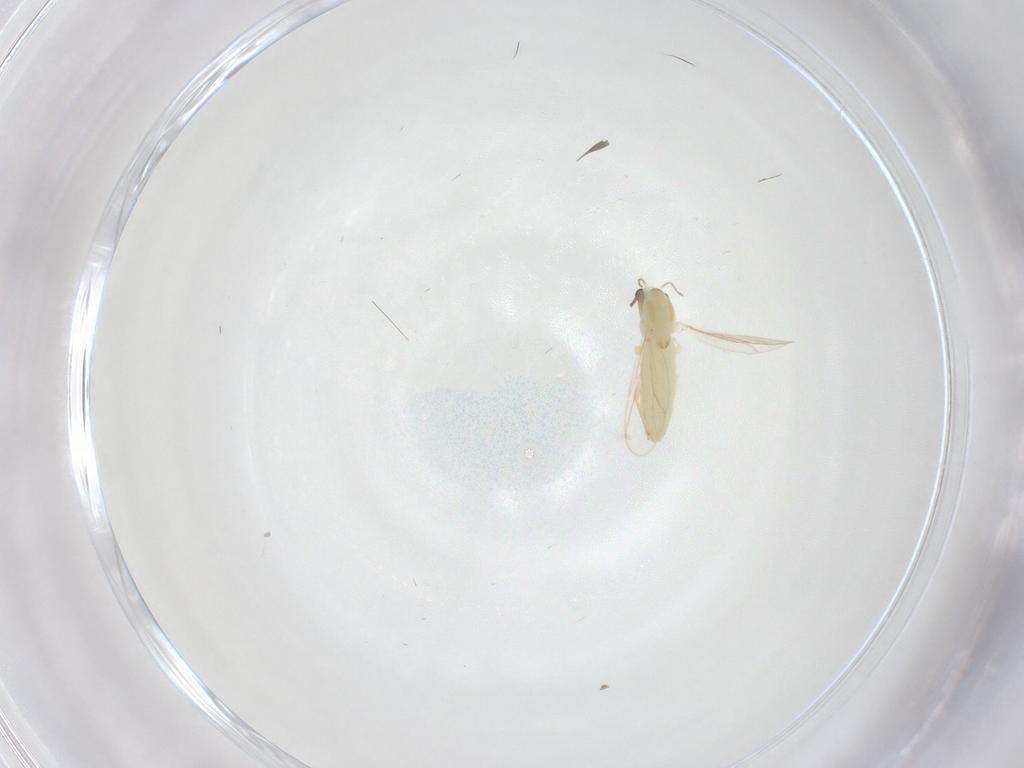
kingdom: Animalia
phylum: Arthropoda
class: Insecta
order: Diptera
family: Chironomidae
